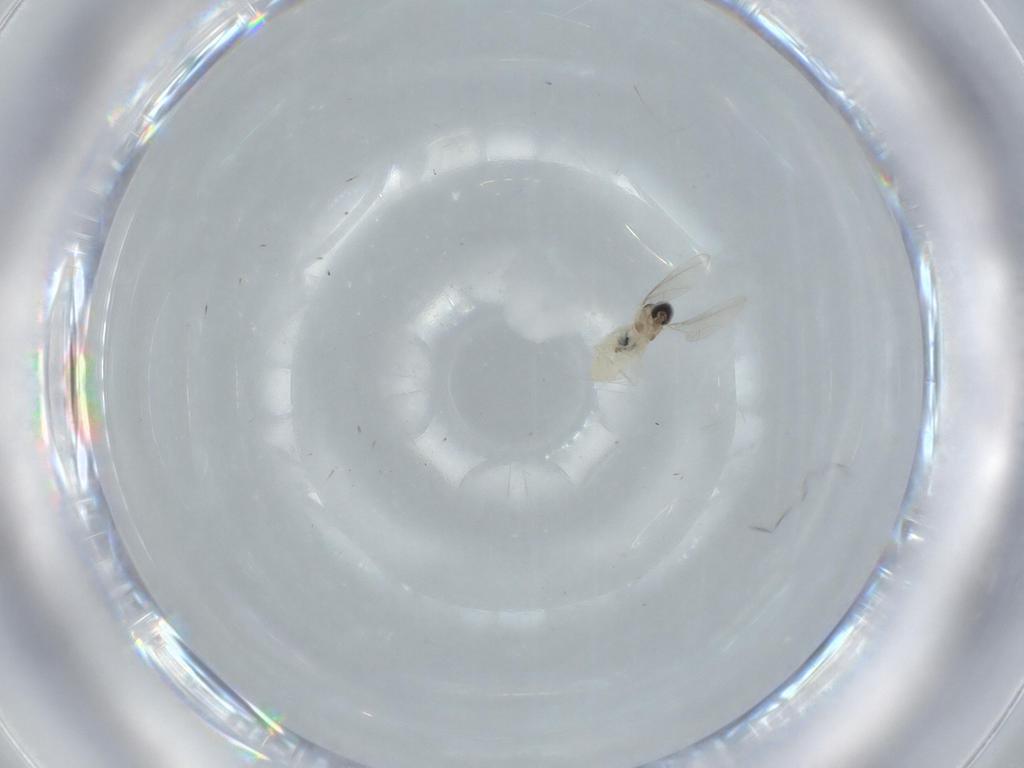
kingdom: Animalia
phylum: Arthropoda
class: Insecta
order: Diptera
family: Cecidomyiidae
